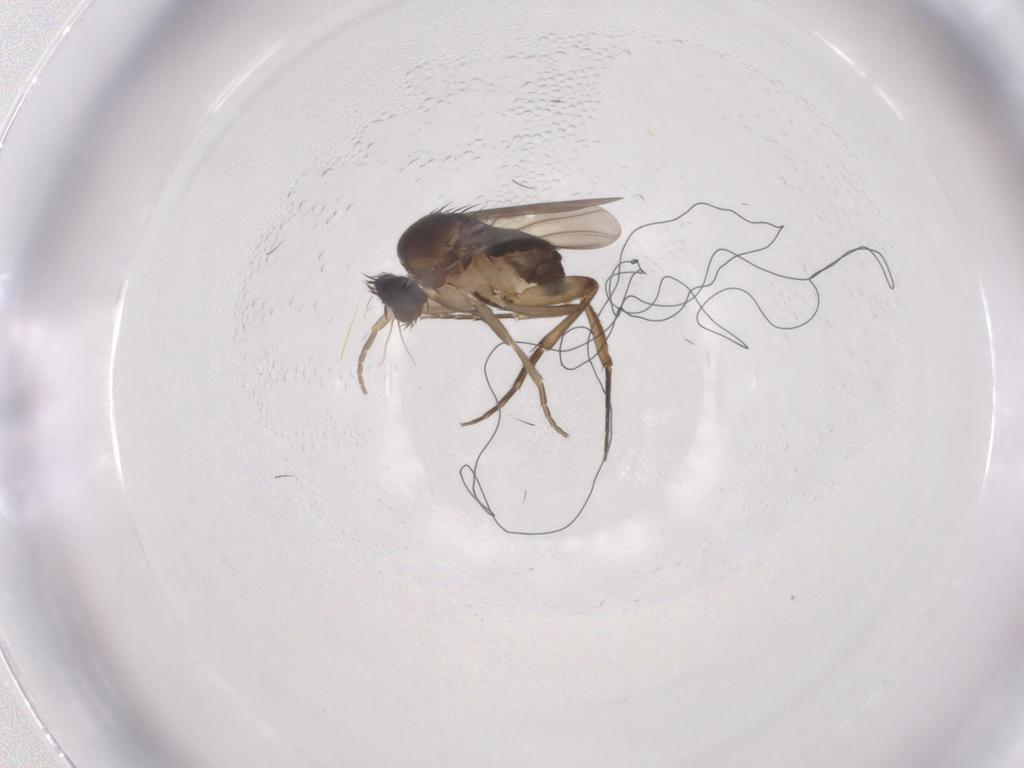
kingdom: Animalia
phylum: Arthropoda
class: Insecta
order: Diptera
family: Phoridae
